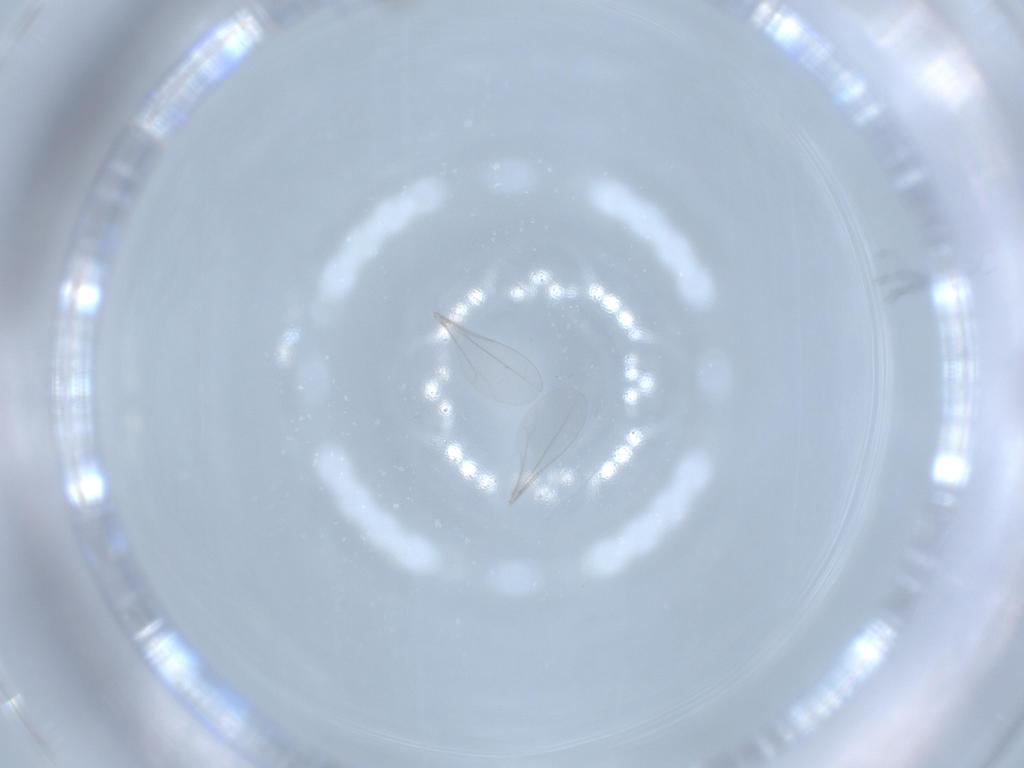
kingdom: Animalia
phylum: Arthropoda
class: Insecta
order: Diptera
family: Cecidomyiidae
